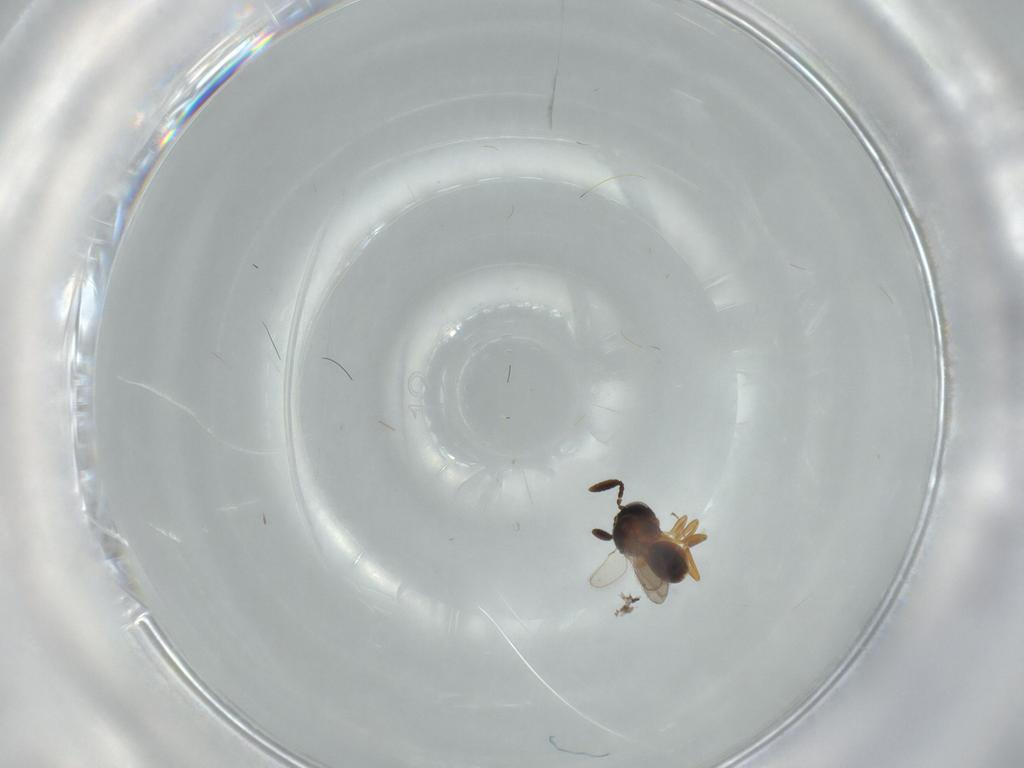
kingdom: Animalia
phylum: Arthropoda
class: Insecta
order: Hymenoptera
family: Scelionidae
